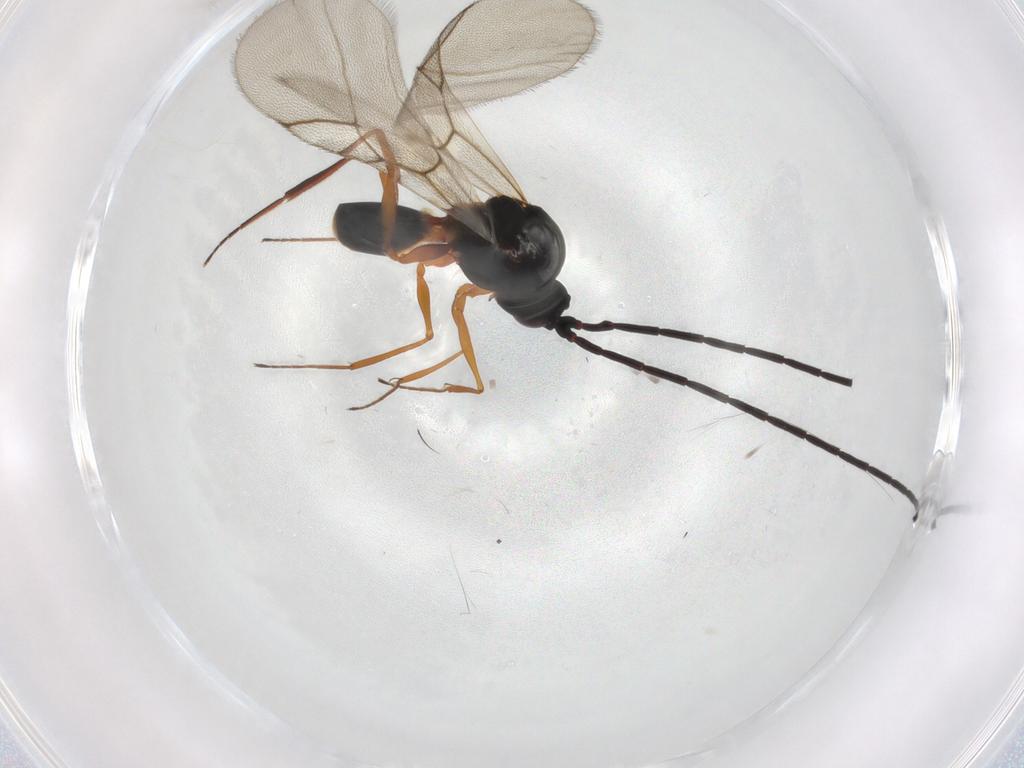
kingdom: Animalia
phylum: Arthropoda
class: Insecta
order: Hymenoptera
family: Figitidae
